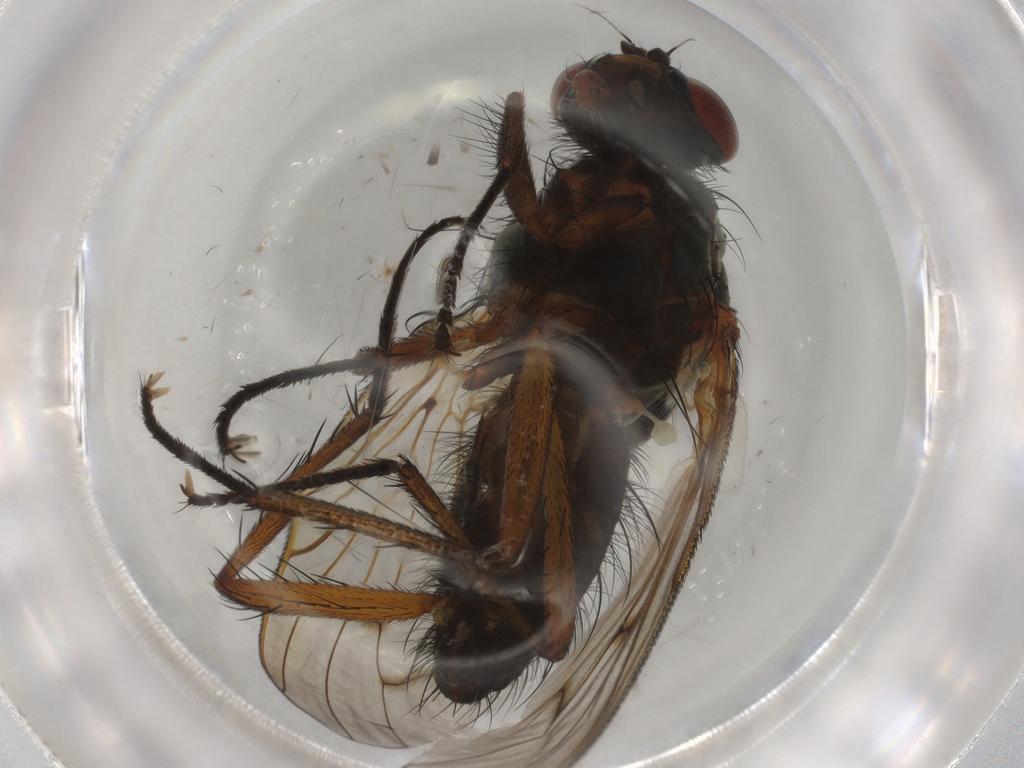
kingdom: Animalia
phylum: Arthropoda
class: Insecta
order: Diptera
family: Anthomyiidae
